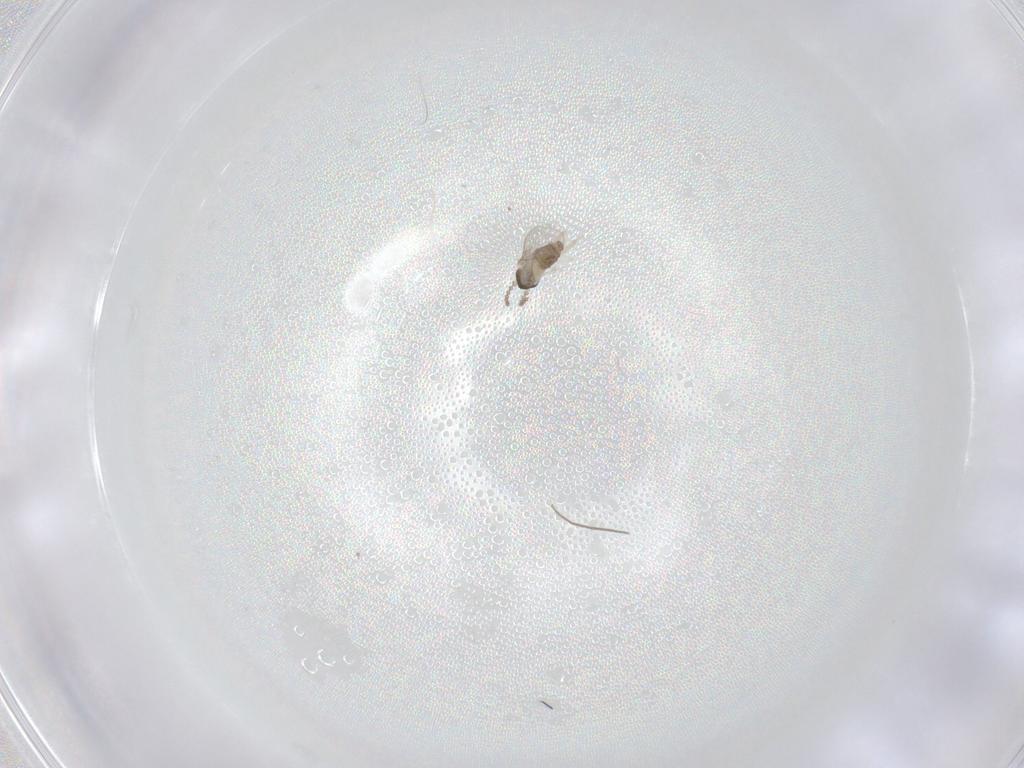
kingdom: Animalia
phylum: Arthropoda
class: Insecta
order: Diptera
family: Cecidomyiidae
